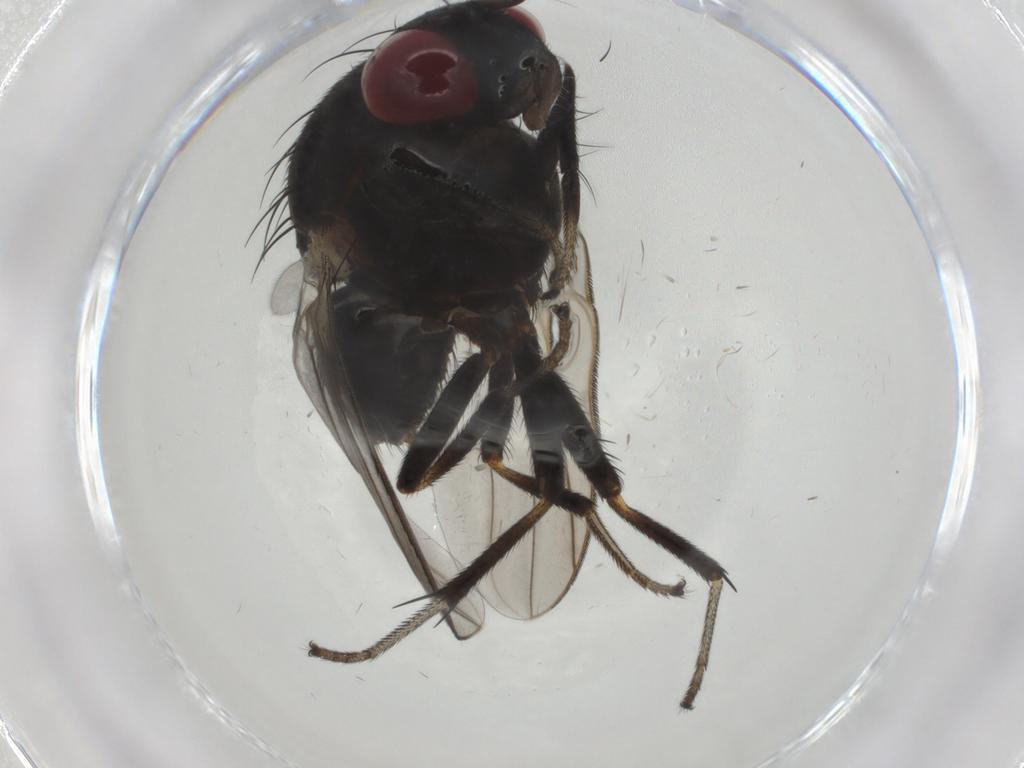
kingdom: Animalia
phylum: Arthropoda
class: Insecta
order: Diptera
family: Lauxaniidae
